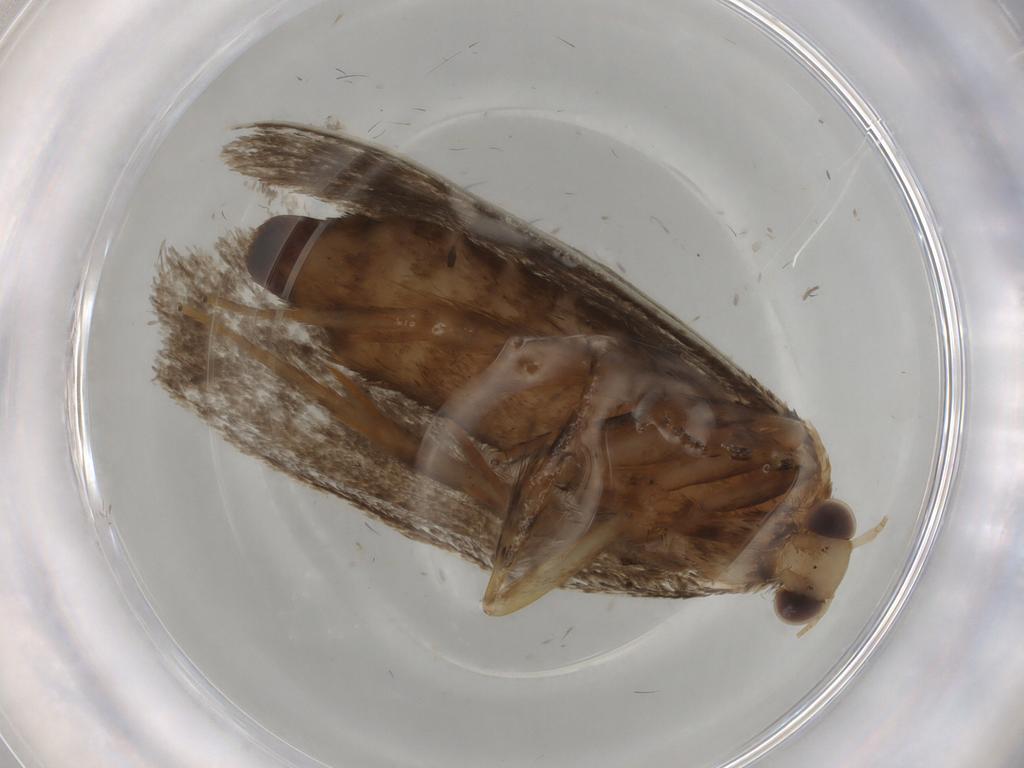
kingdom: Animalia
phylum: Arthropoda
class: Insecta
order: Lepidoptera
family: Tineidae
